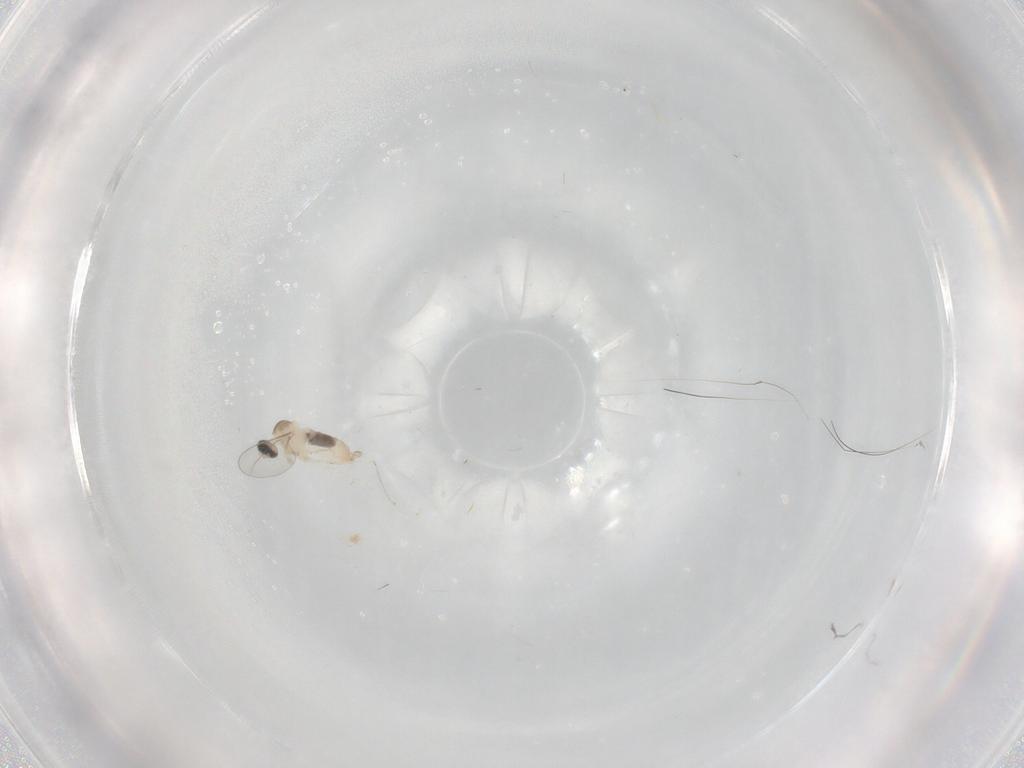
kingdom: Animalia
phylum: Arthropoda
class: Insecta
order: Diptera
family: Cecidomyiidae
